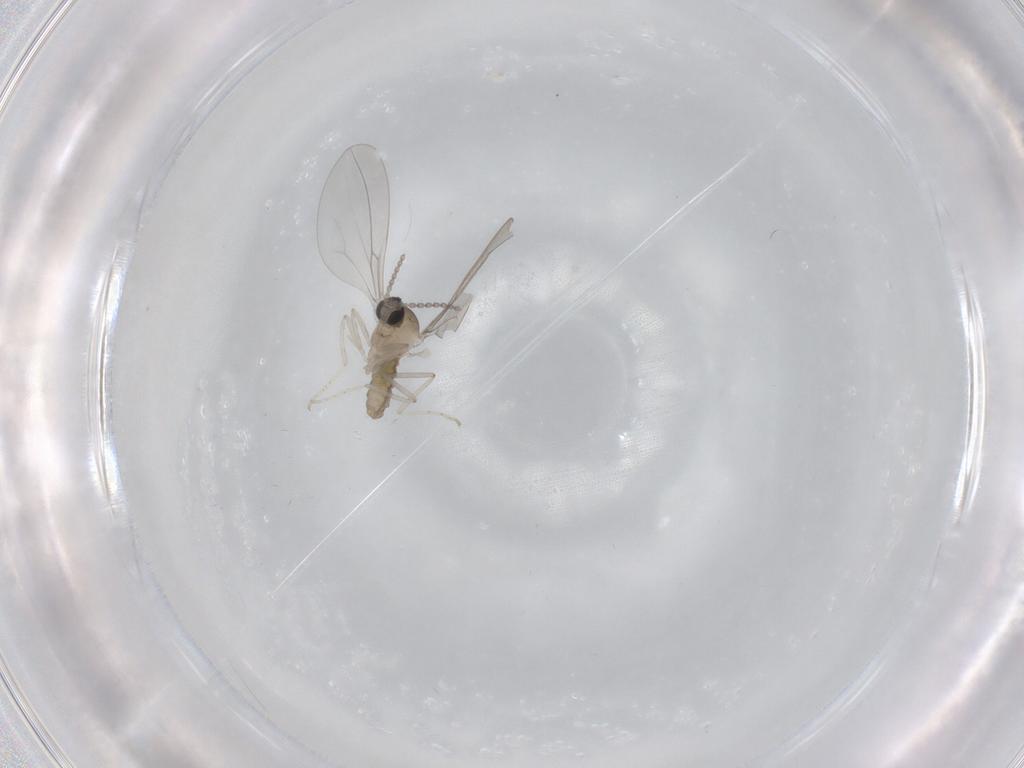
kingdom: Animalia
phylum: Arthropoda
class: Insecta
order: Diptera
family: Cecidomyiidae
